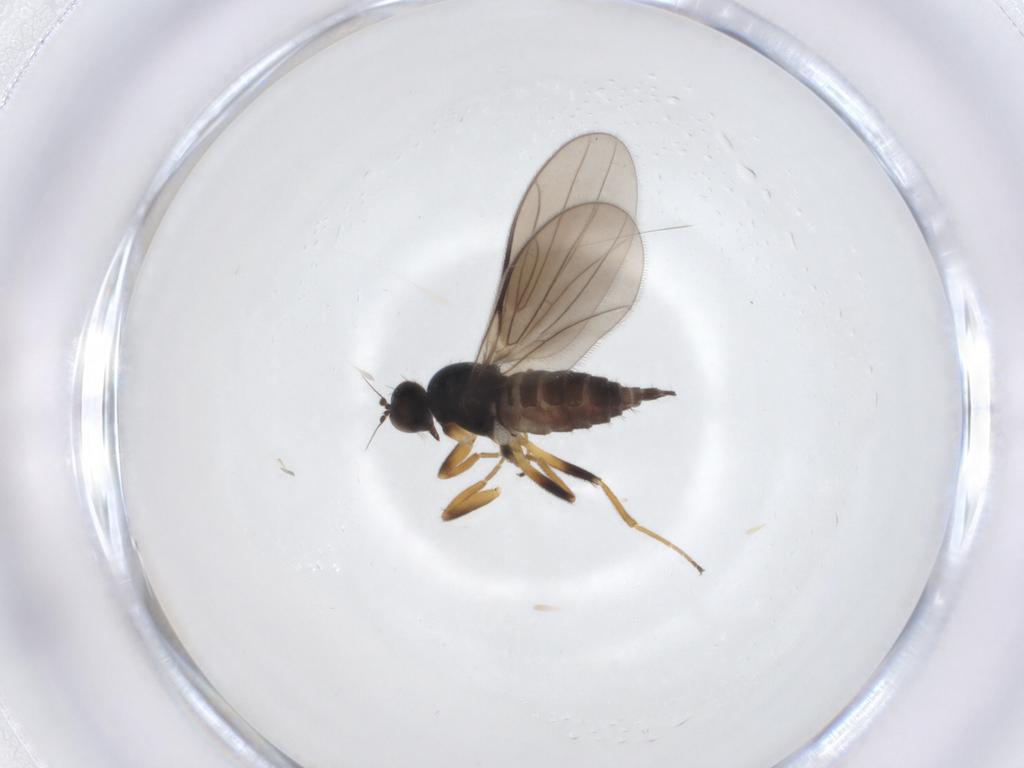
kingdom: Animalia
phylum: Arthropoda
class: Insecta
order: Diptera
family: Hybotidae
